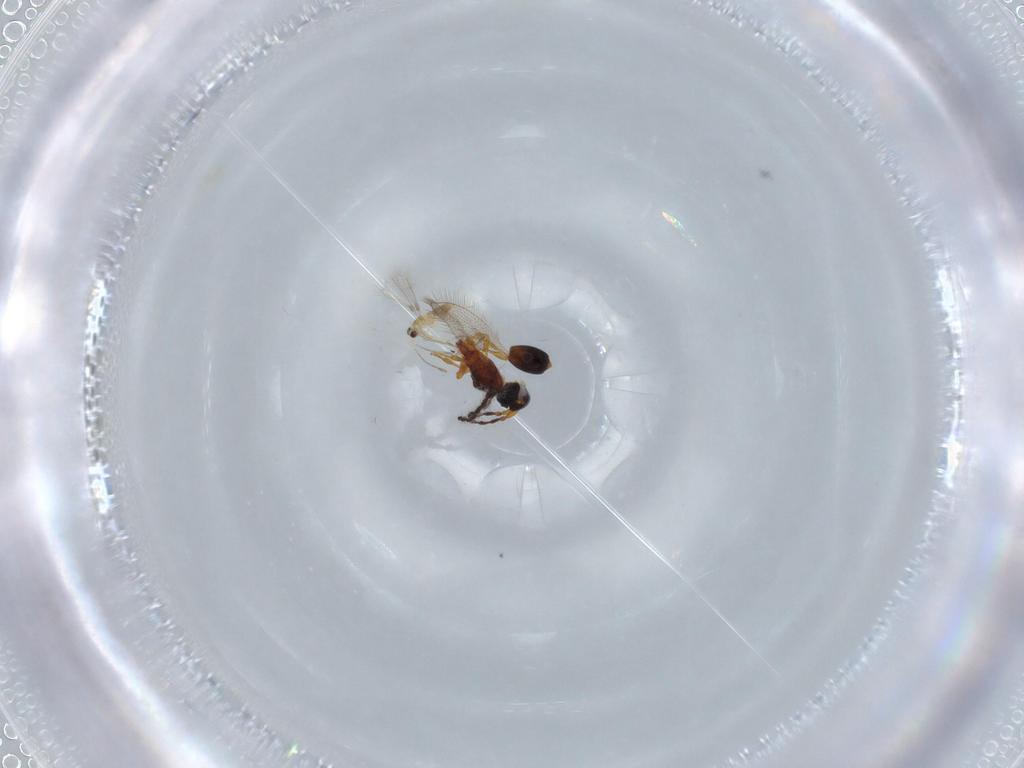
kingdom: Animalia
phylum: Arthropoda
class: Insecta
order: Hymenoptera
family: Diapriidae
